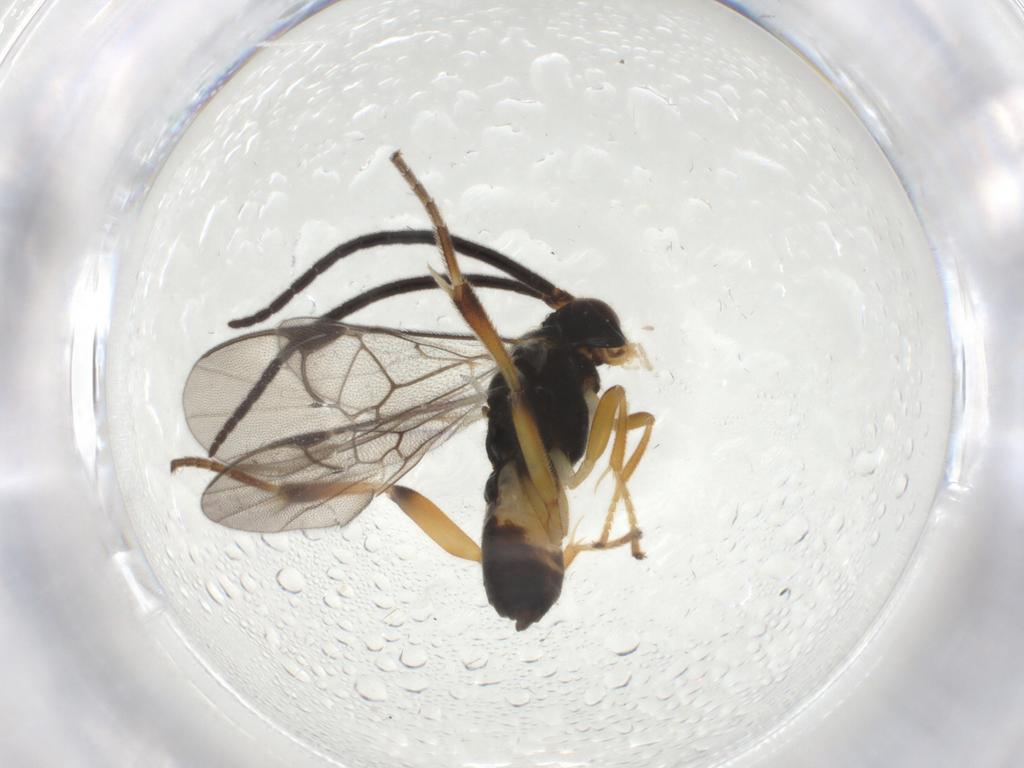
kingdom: Animalia
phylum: Arthropoda
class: Insecta
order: Hymenoptera
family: Braconidae
